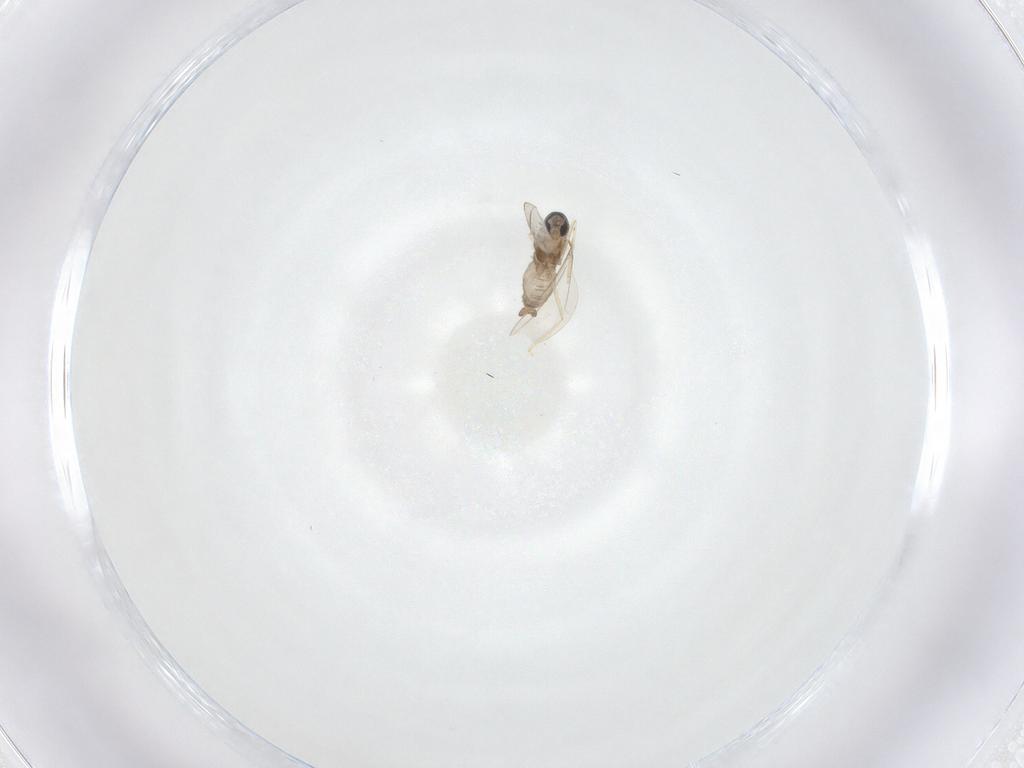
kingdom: Animalia
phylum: Arthropoda
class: Insecta
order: Diptera
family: Cecidomyiidae
